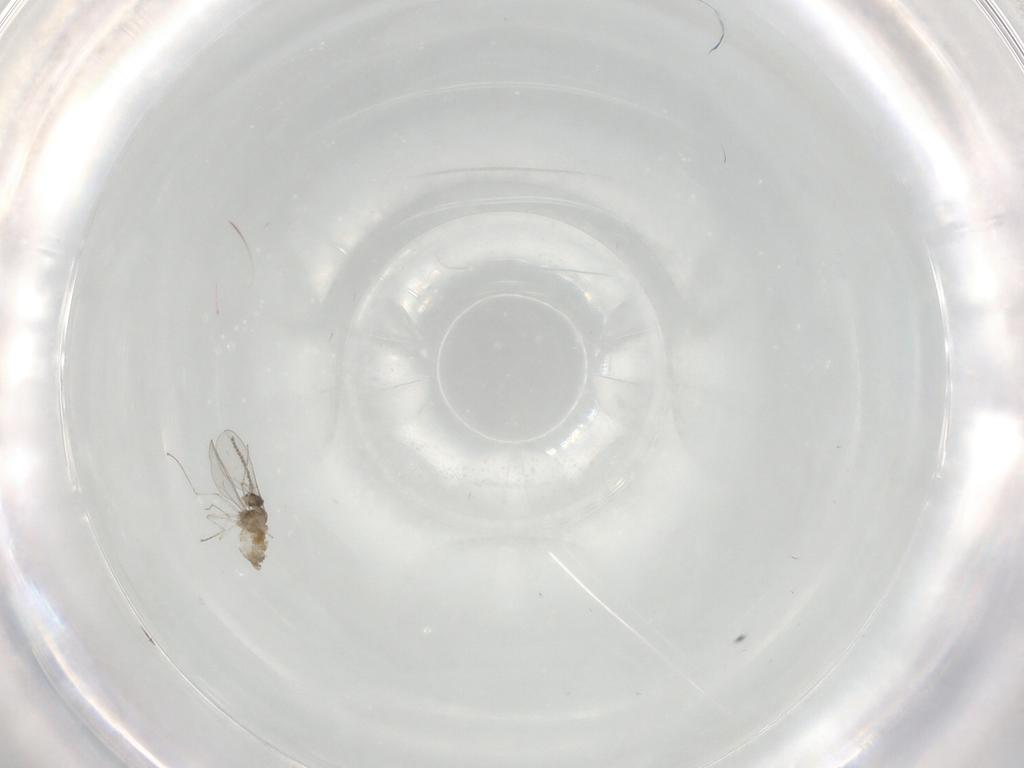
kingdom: Animalia
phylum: Arthropoda
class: Insecta
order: Diptera
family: Cecidomyiidae
